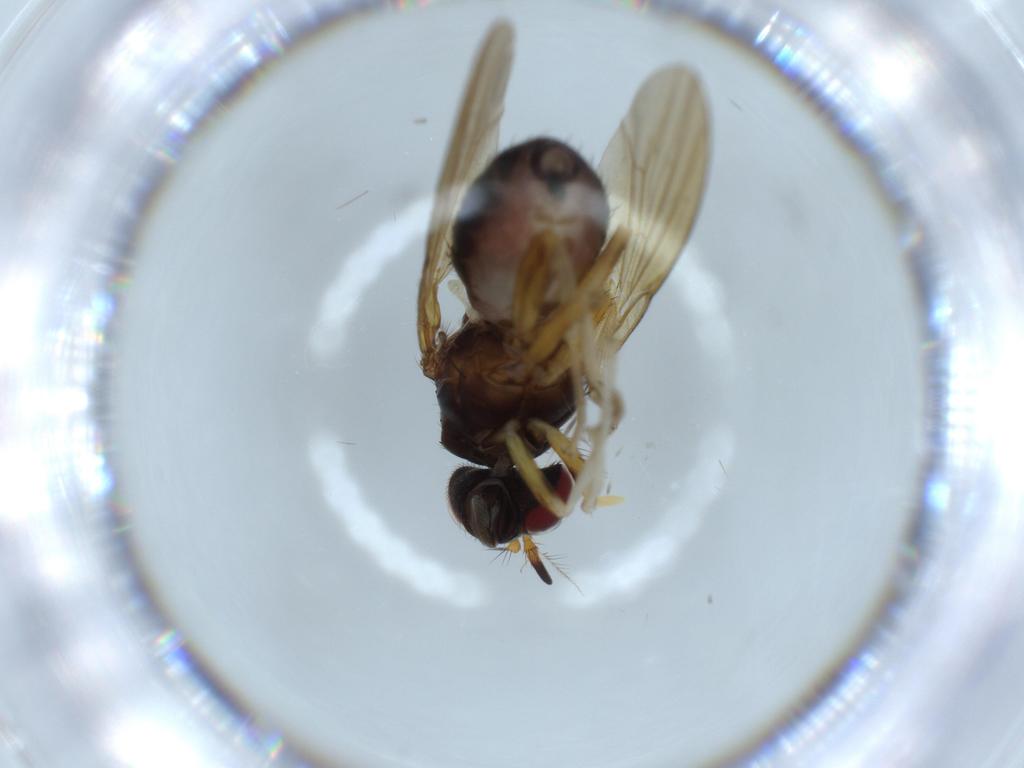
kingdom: Animalia
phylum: Arthropoda
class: Insecta
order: Diptera
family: Lauxaniidae
